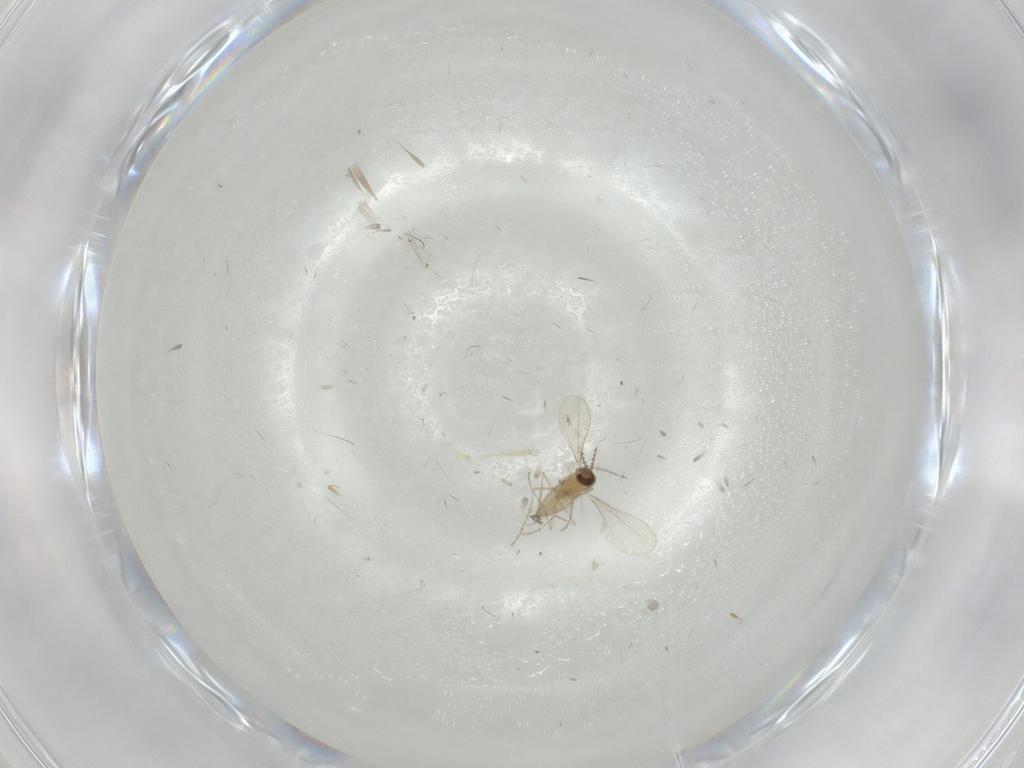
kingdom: Animalia
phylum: Arthropoda
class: Insecta
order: Diptera
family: Cecidomyiidae
